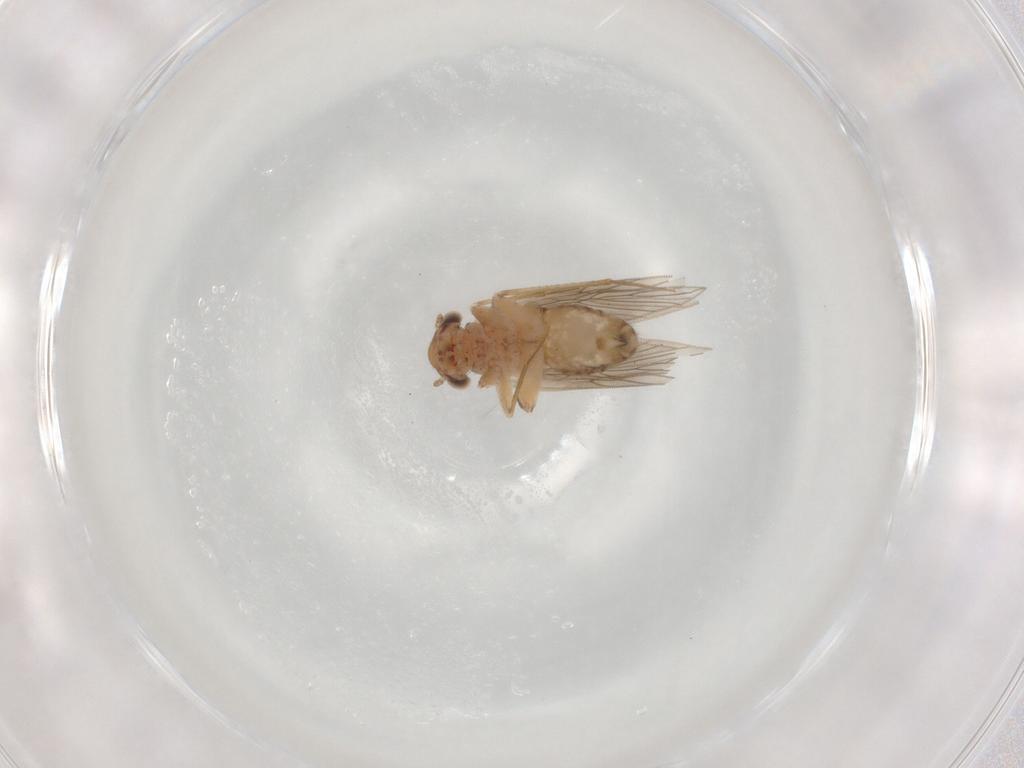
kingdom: Animalia
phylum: Arthropoda
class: Insecta
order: Psocodea
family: Lepidopsocidae
